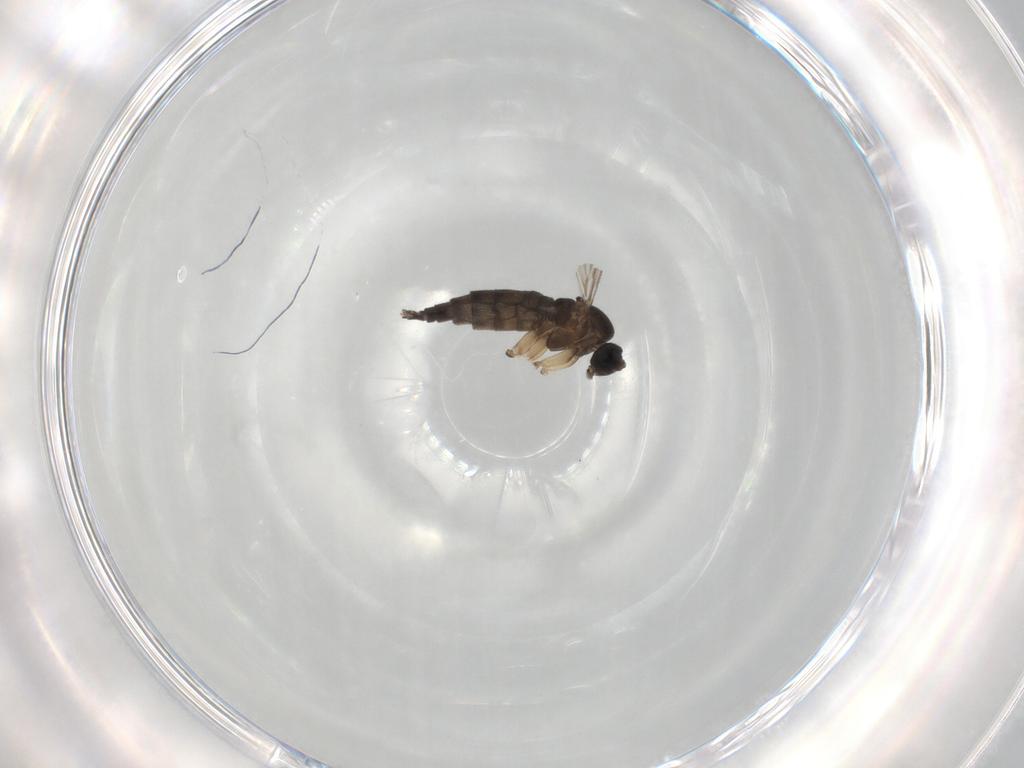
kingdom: Animalia
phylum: Arthropoda
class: Insecta
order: Diptera
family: Sciaridae
